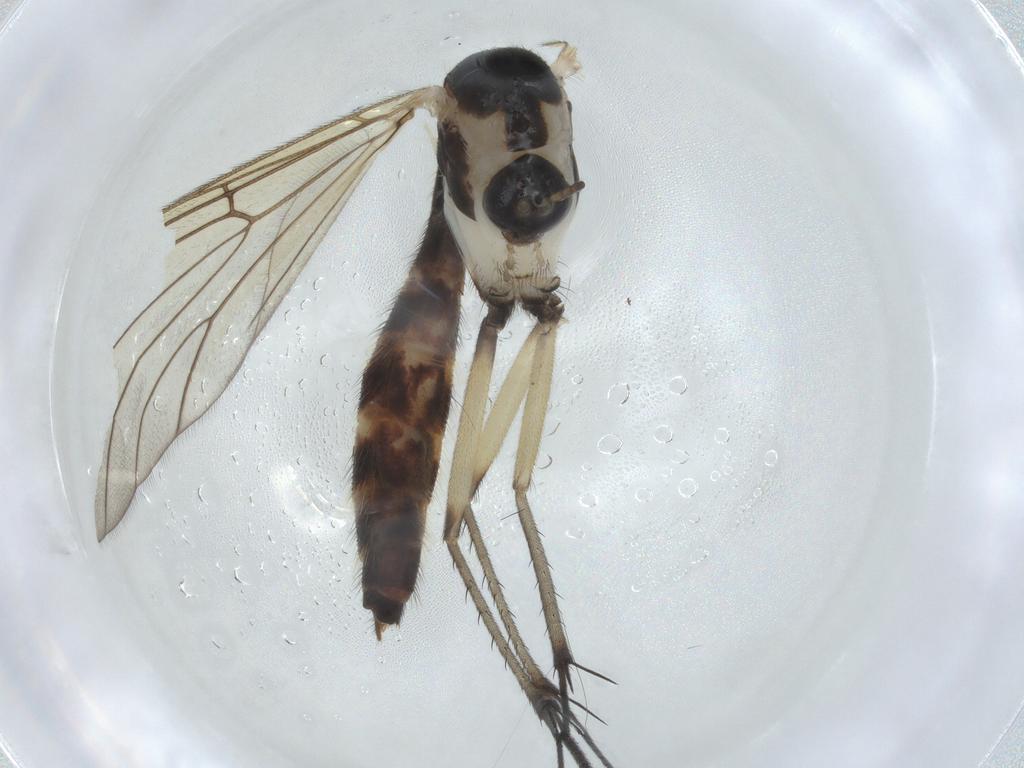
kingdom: Animalia
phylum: Arthropoda
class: Insecta
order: Diptera
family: Mycetophilidae
